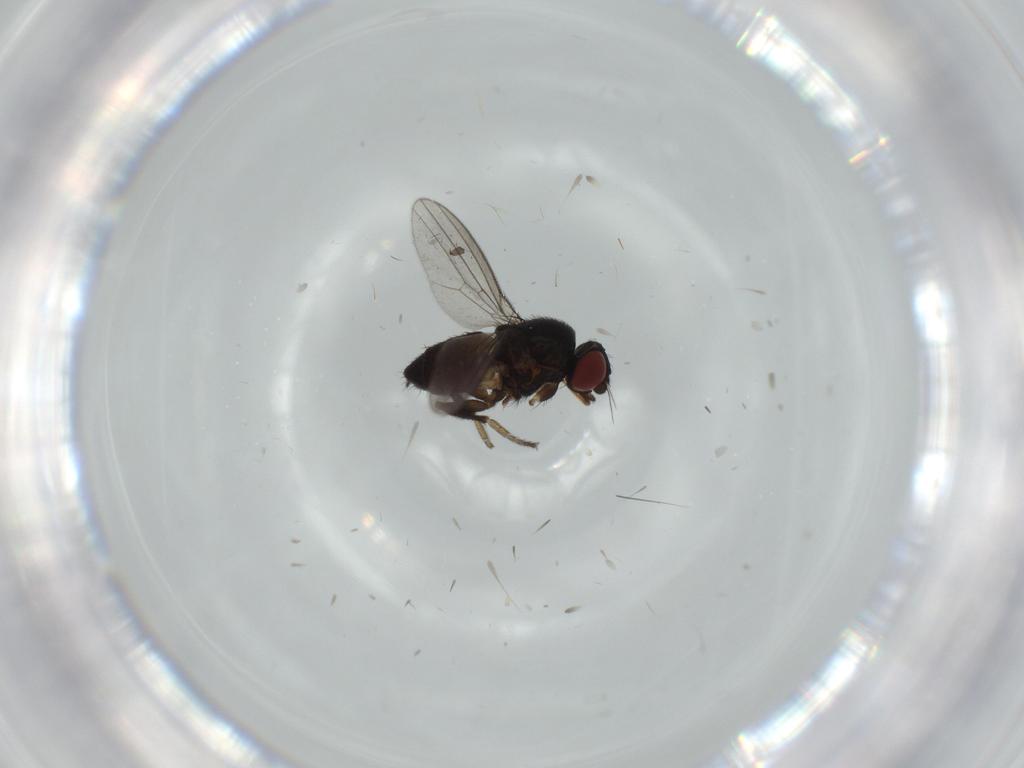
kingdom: Animalia
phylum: Arthropoda
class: Insecta
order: Diptera
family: Milichiidae
